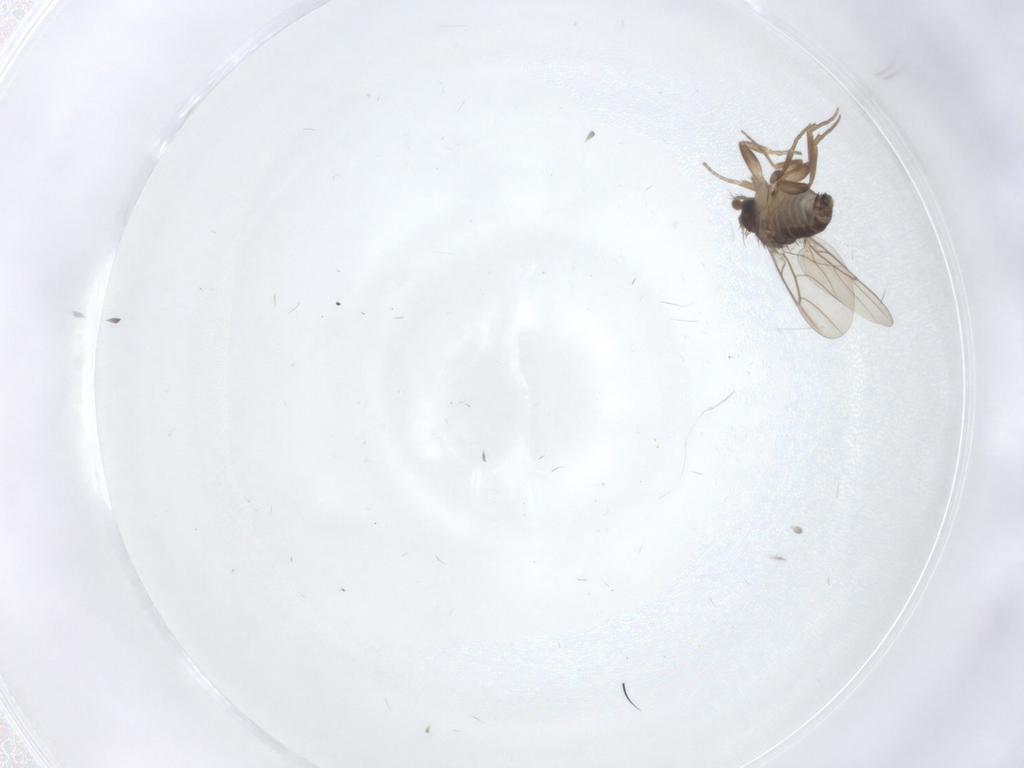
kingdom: Animalia
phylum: Arthropoda
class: Insecta
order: Diptera
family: Phoridae
